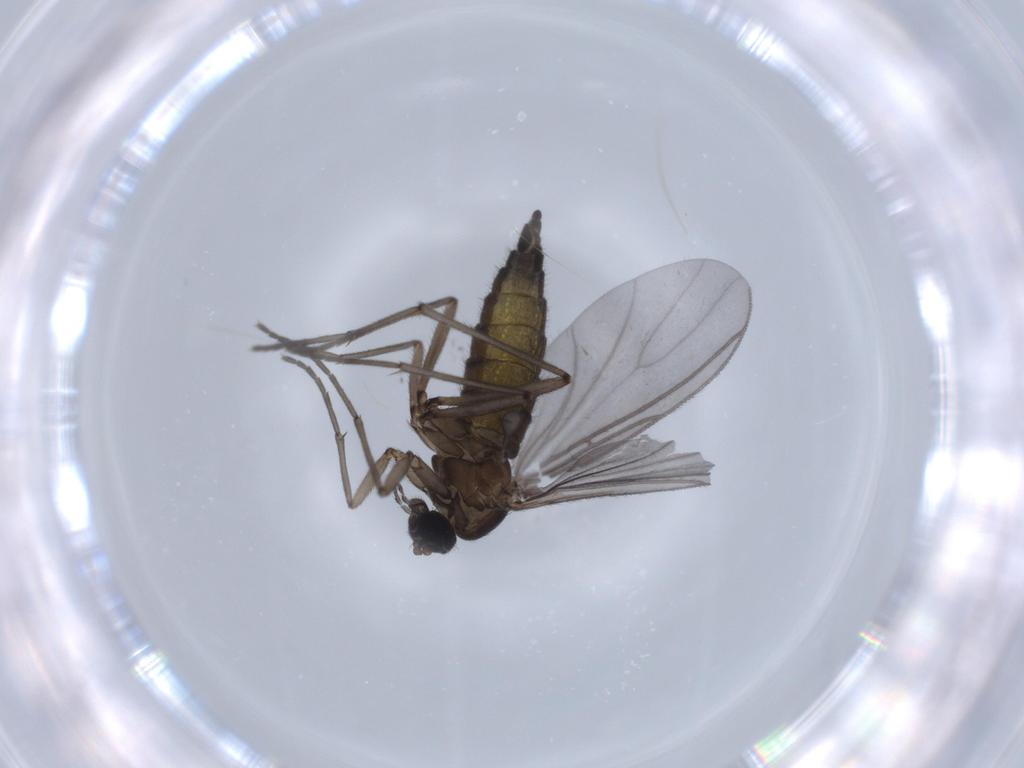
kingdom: Animalia
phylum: Arthropoda
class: Insecta
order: Diptera
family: Sciaridae
